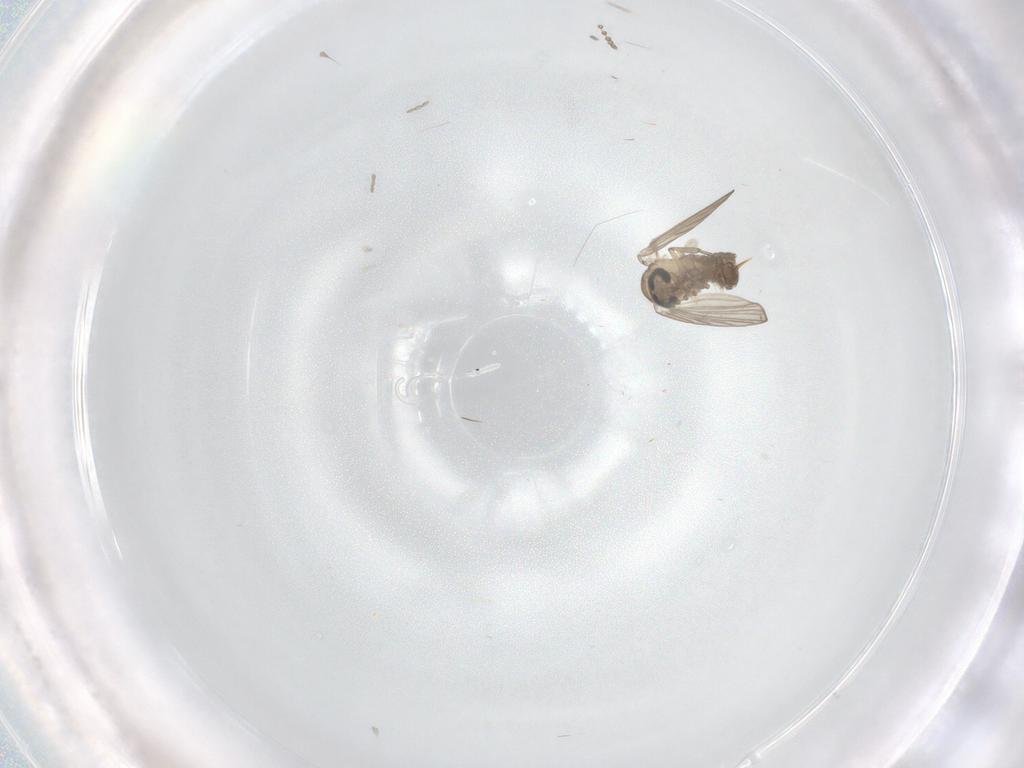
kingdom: Animalia
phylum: Arthropoda
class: Insecta
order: Diptera
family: Psychodidae
